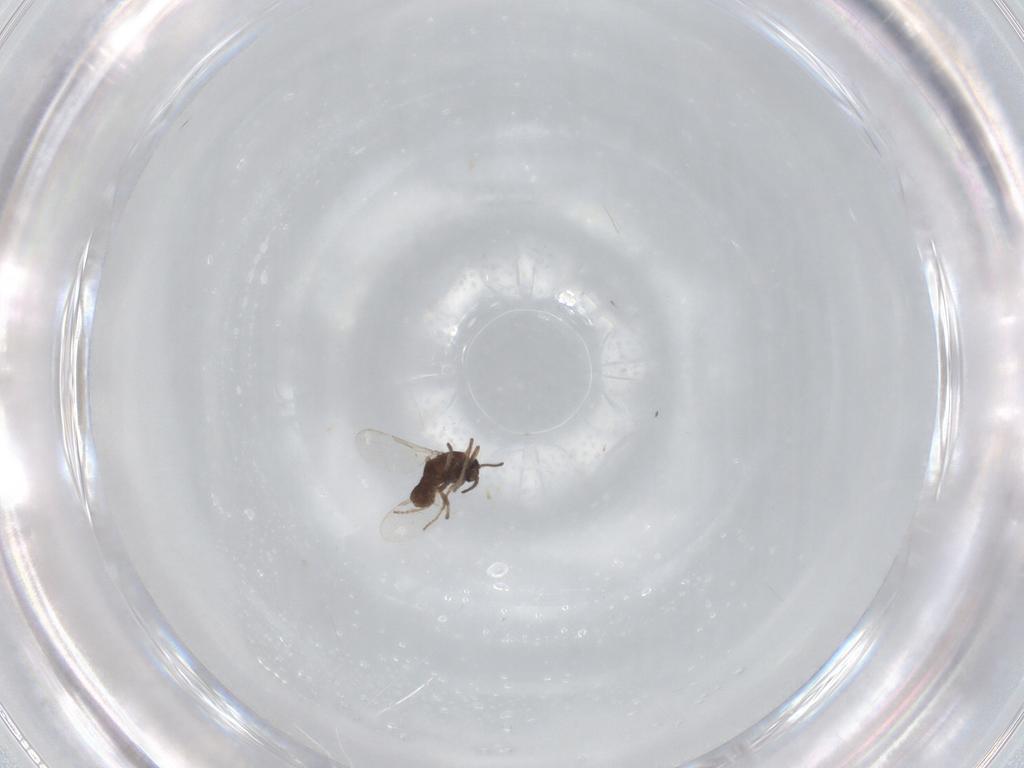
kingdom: Animalia
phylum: Arthropoda
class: Insecta
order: Diptera
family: Ceratopogonidae
